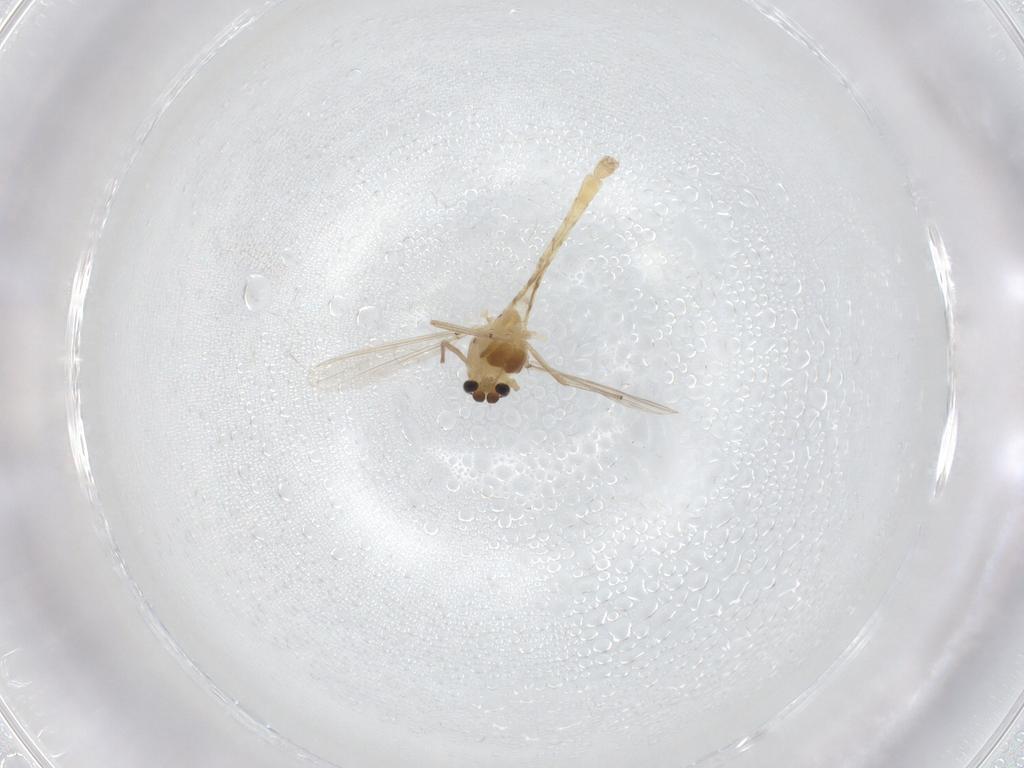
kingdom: Animalia
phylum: Arthropoda
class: Insecta
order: Diptera
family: Chironomidae
